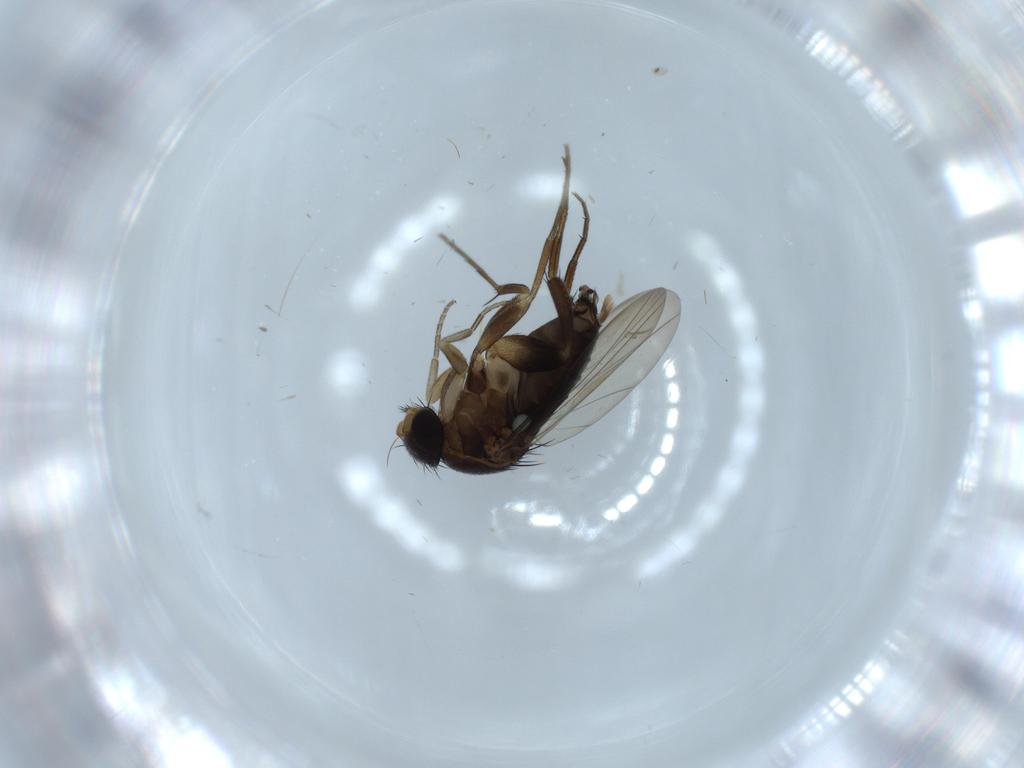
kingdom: Animalia
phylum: Arthropoda
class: Insecta
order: Diptera
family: Phoridae
